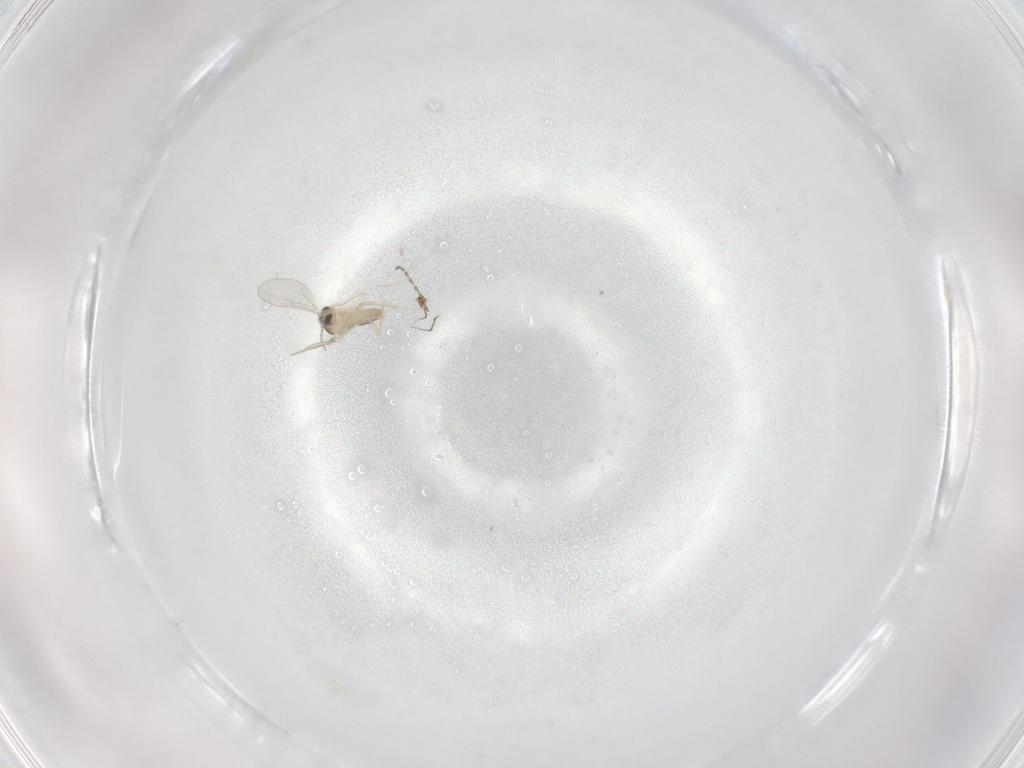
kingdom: Animalia
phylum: Arthropoda
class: Insecta
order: Diptera
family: Cecidomyiidae
